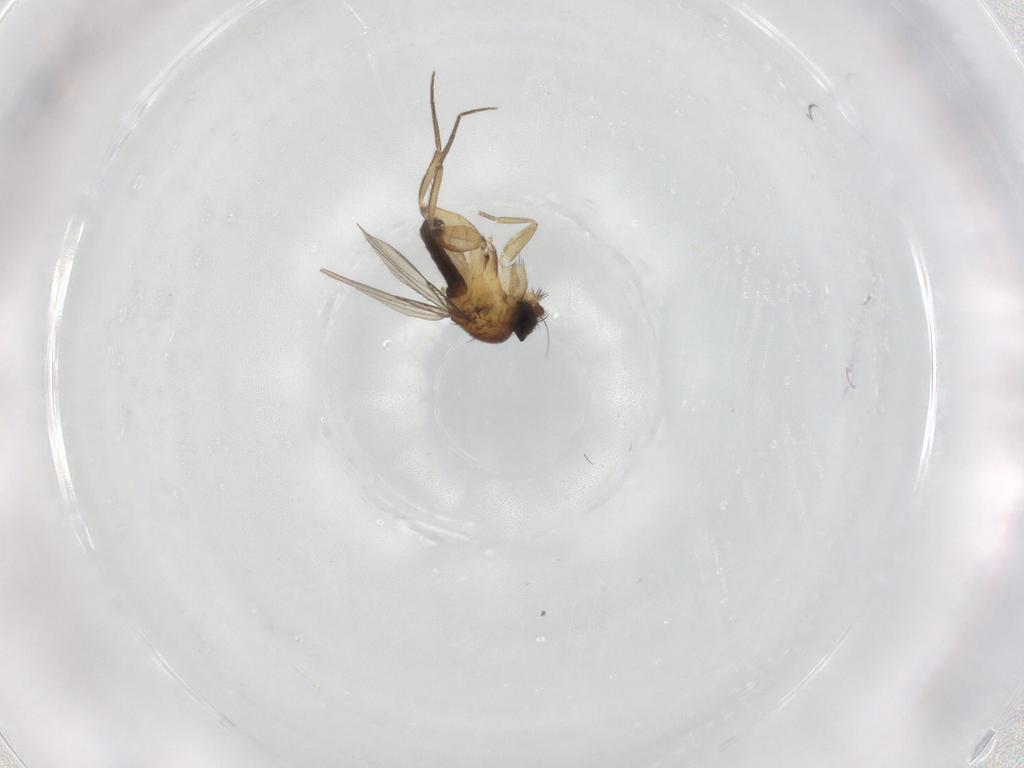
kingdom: Animalia
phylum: Arthropoda
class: Insecta
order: Diptera
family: Phoridae
